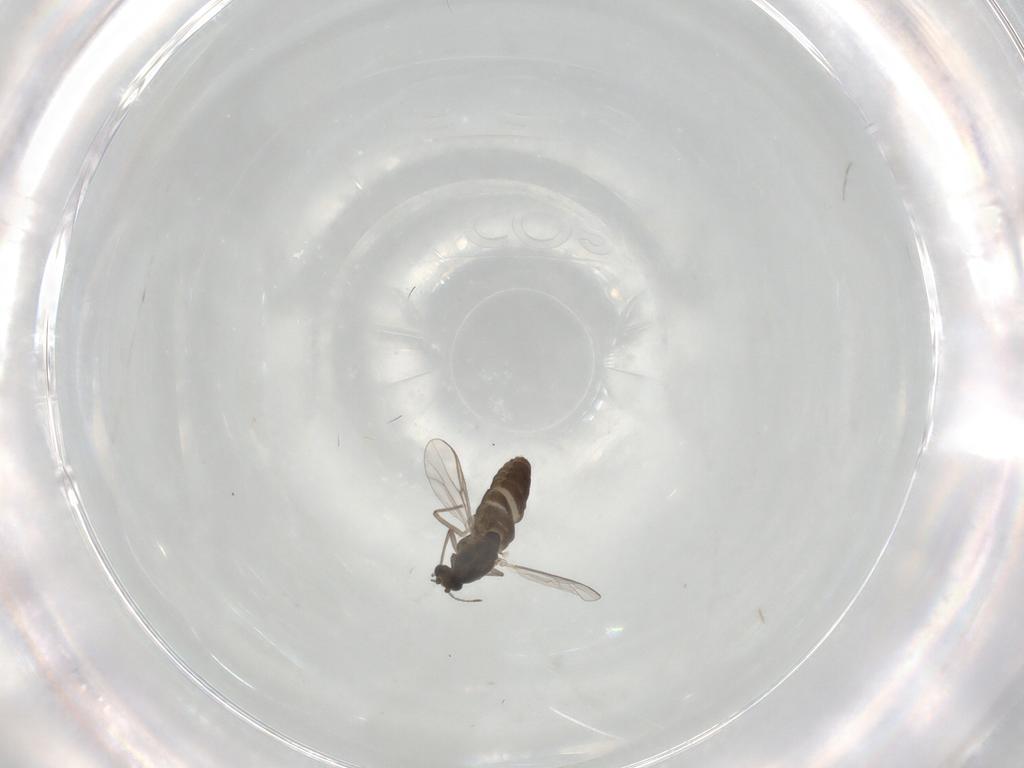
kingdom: Animalia
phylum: Arthropoda
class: Insecta
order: Diptera
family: Chironomidae
